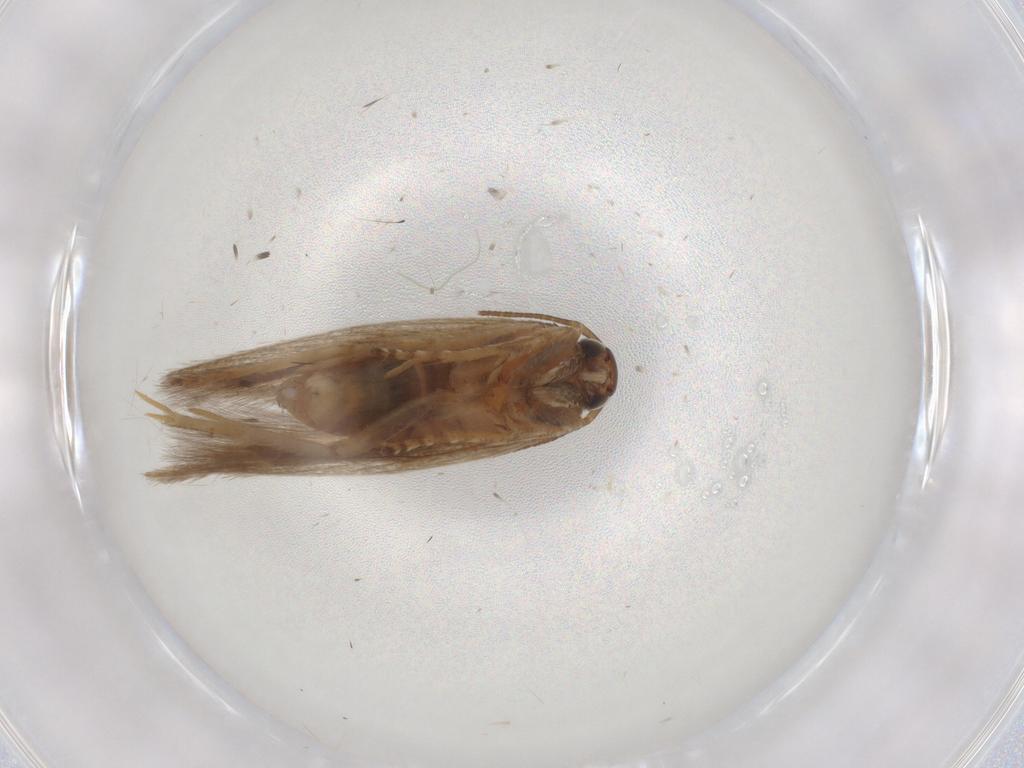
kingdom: Animalia
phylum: Arthropoda
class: Insecta
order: Lepidoptera
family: Gelechiidae
